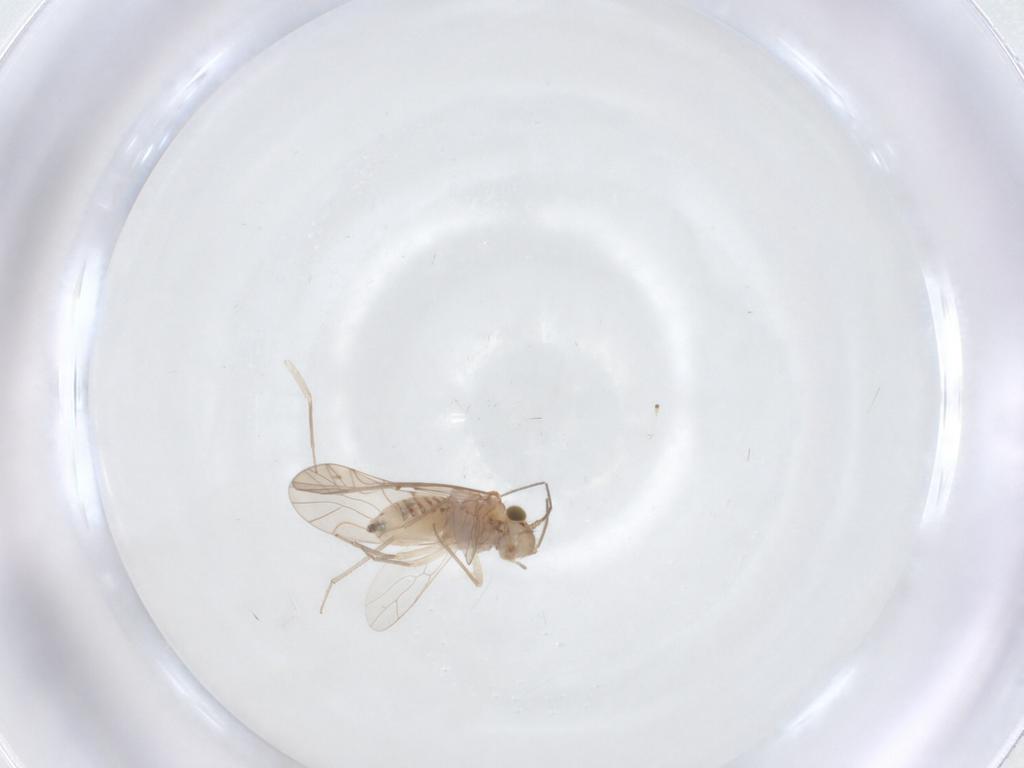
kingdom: Animalia
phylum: Arthropoda
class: Insecta
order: Psocodea
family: Lachesillidae
